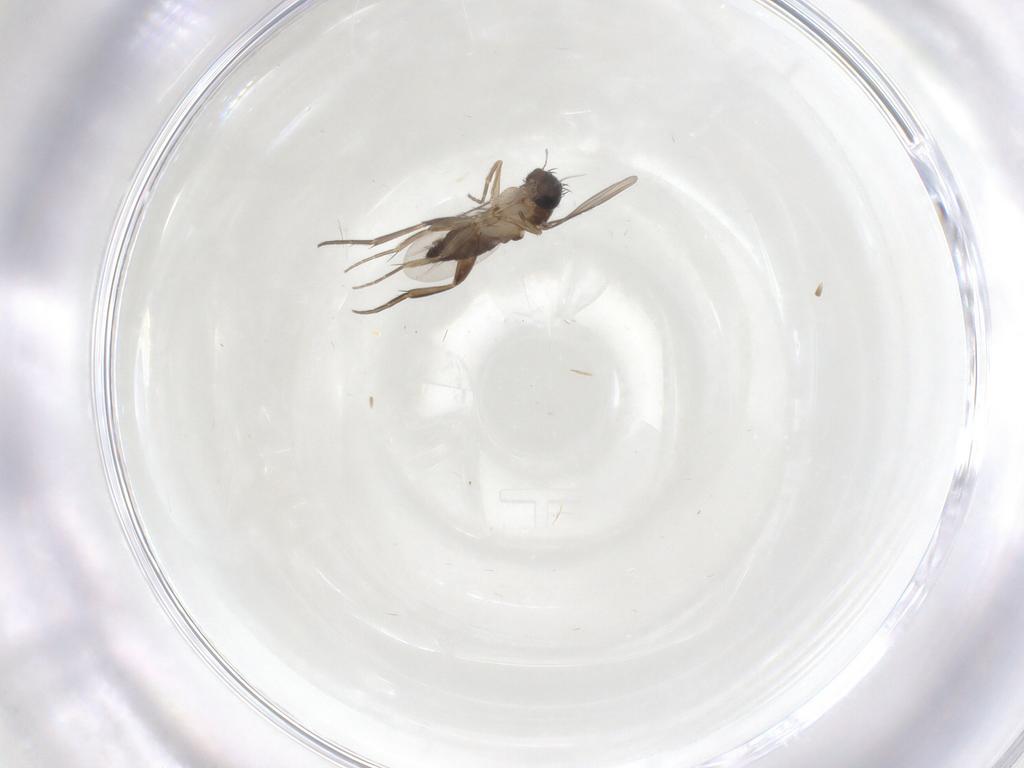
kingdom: Animalia
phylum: Arthropoda
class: Insecta
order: Diptera
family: Phoridae
